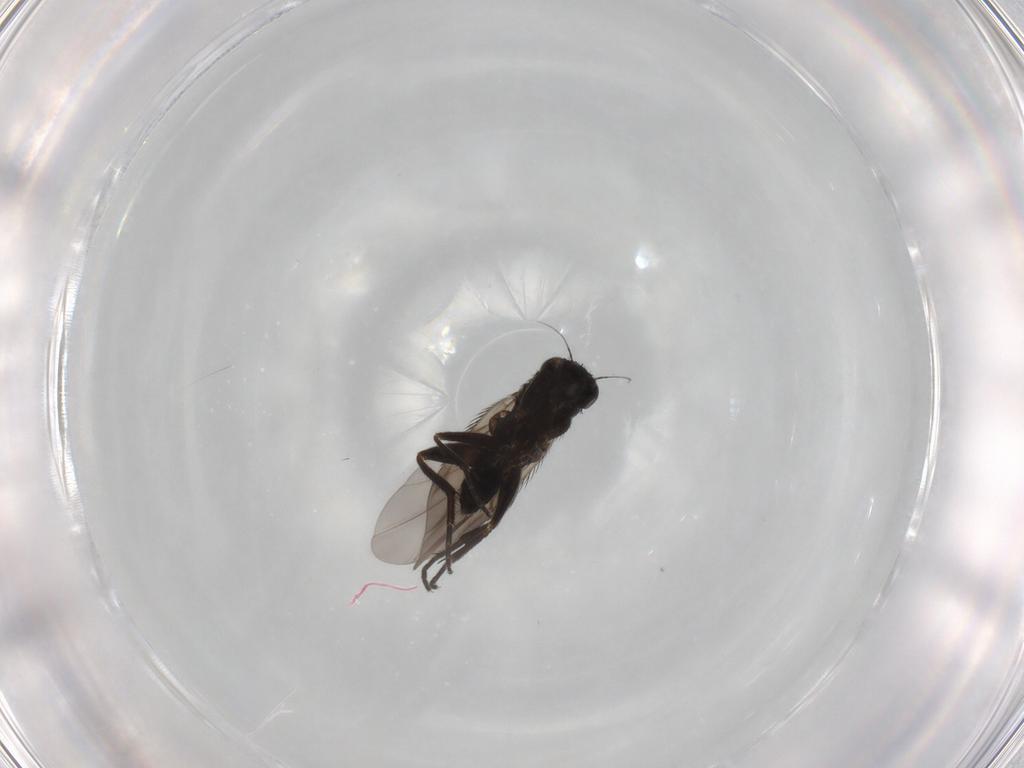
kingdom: Animalia
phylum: Arthropoda
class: Insecta
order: Diptera
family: Phoridae
